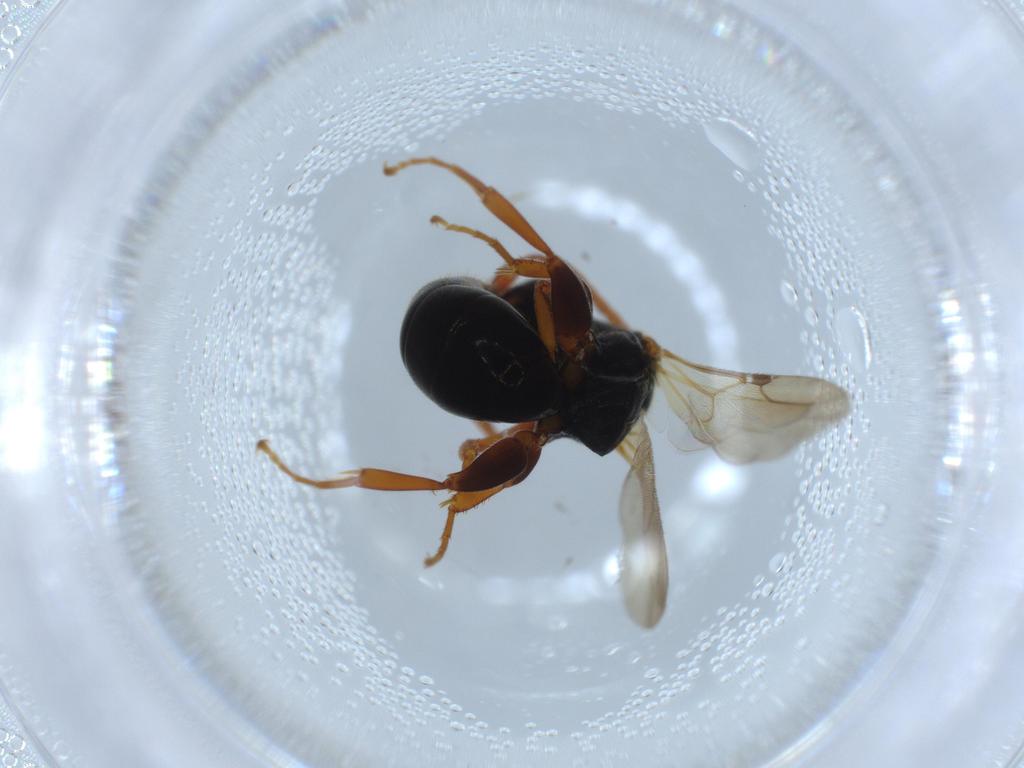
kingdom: Animalia
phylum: Arthropoda
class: Insecta
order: Hymenoptera
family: Bethylidae
